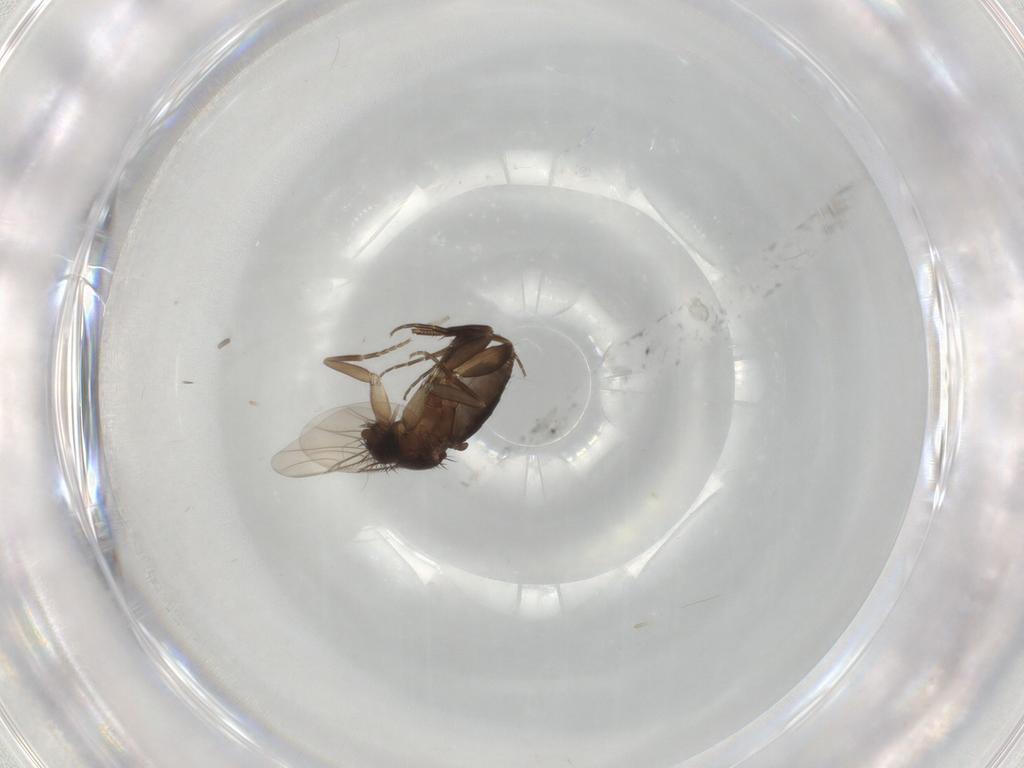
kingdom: Animalia
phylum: Arthropoda
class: Insecta
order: Diptera
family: Phoridae
